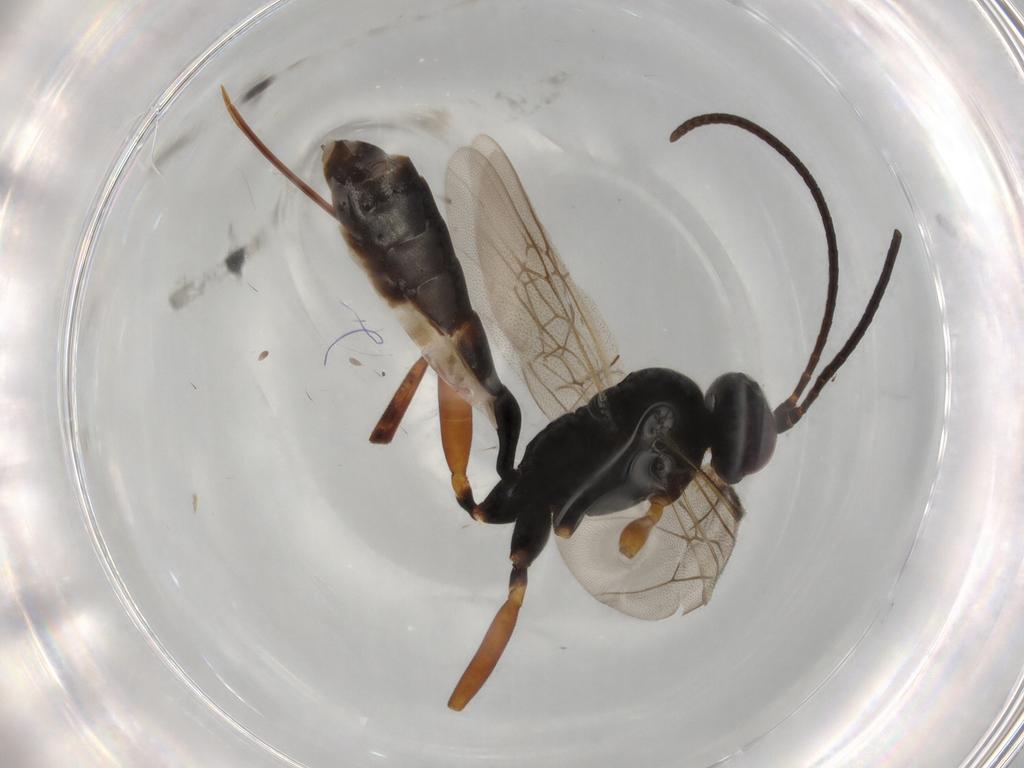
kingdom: Animalia
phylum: Arthropoda
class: Insecta
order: Hymenoptera
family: Ichneumonidae
